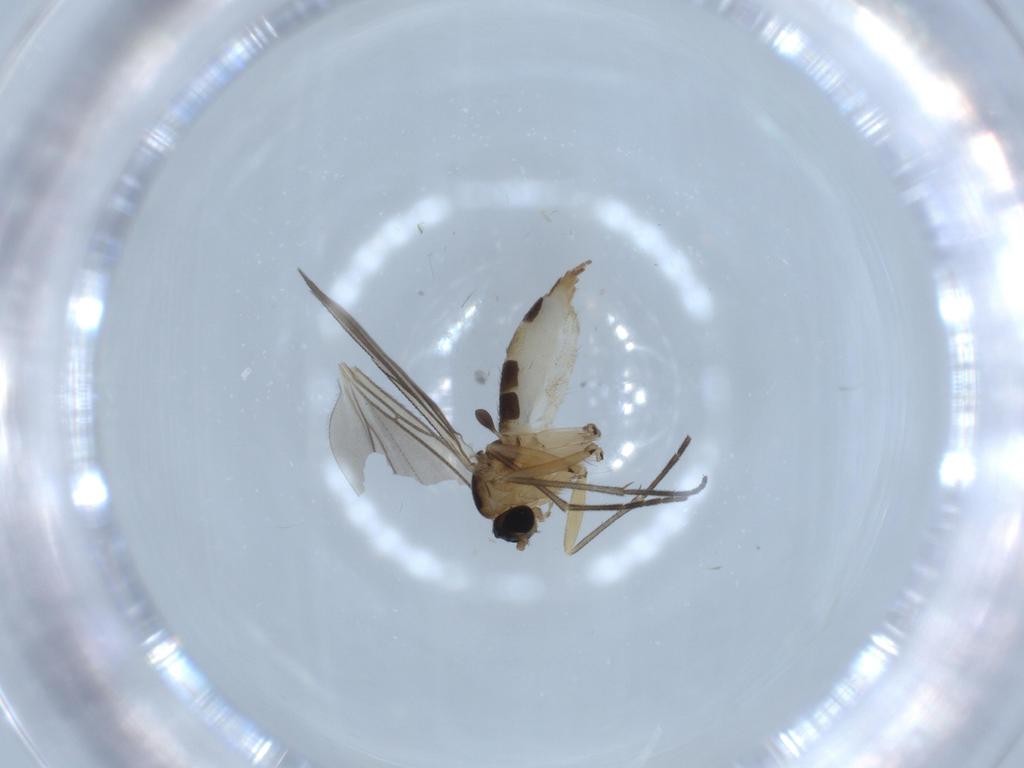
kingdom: Animalia
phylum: Arthropoda
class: Insecta
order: Diptera
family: Sciaridae
